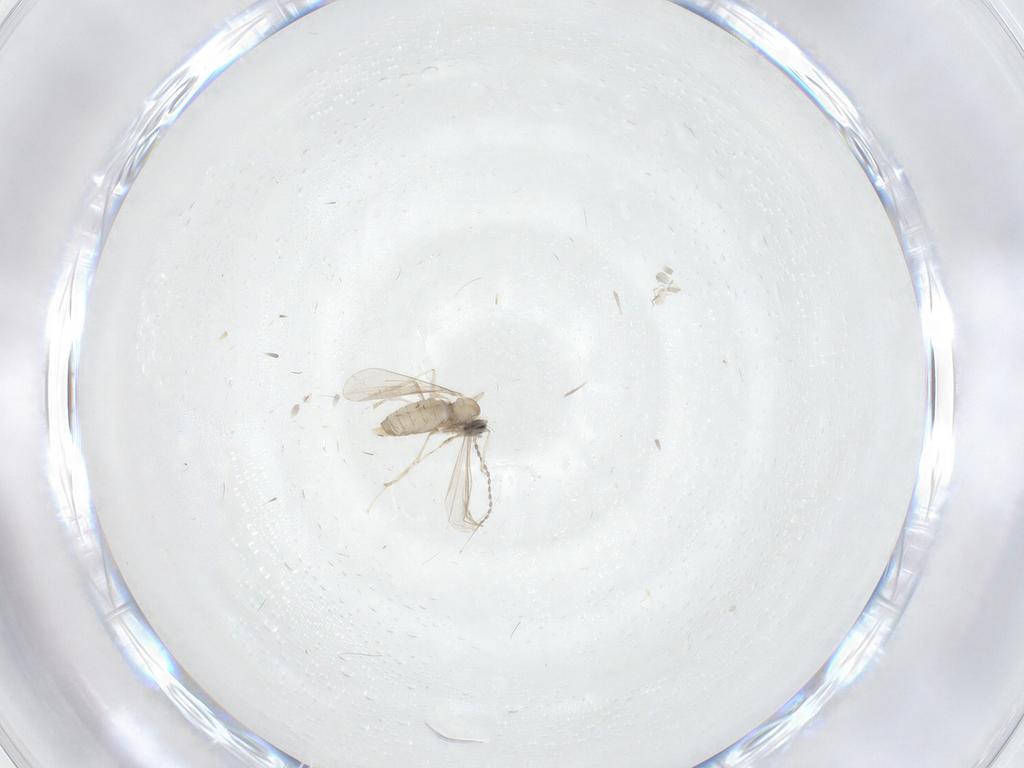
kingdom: Animalia
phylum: Arthropoda
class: Insecta
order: Diptera
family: Cecidomyiidae
